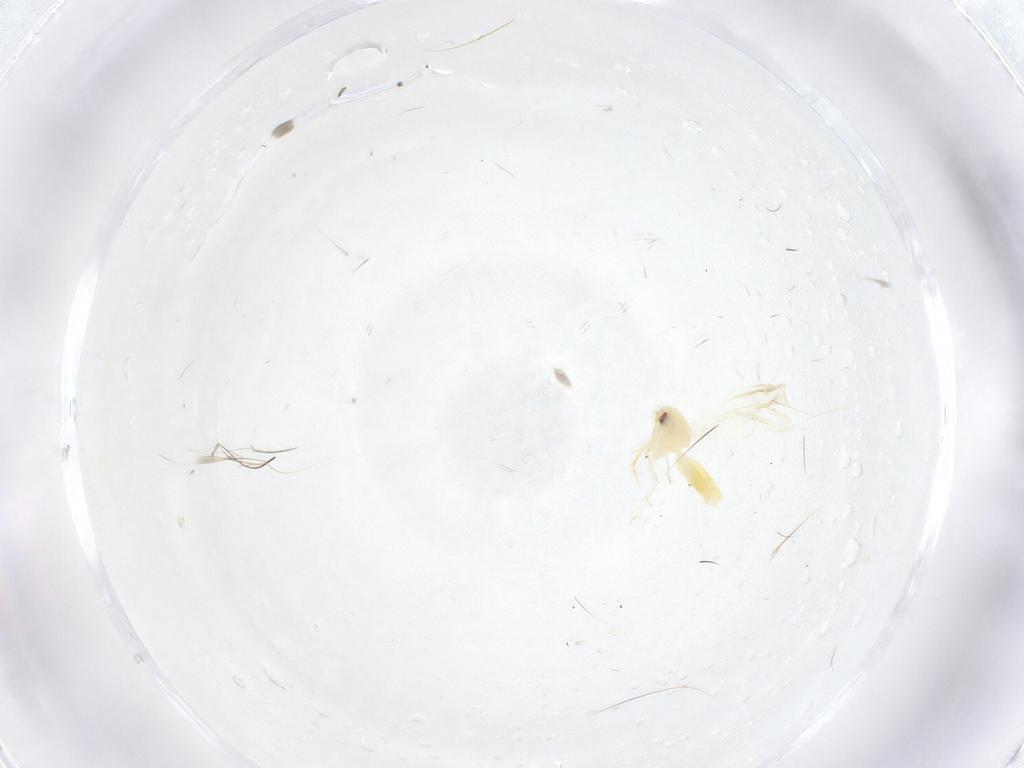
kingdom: Animalia
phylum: Arthropoda
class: Insecta
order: Hemiptera
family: Aleyrodidae
